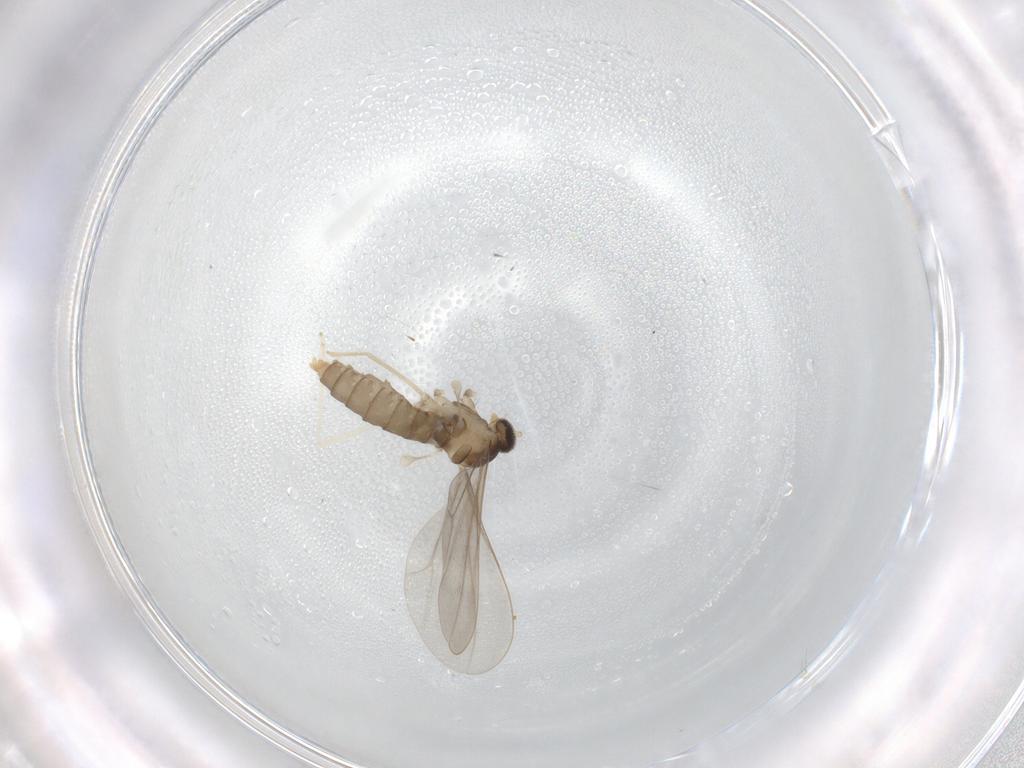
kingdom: Animalia
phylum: Arthropoda
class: Insecta
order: Diptera
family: Cecidomyiidae
